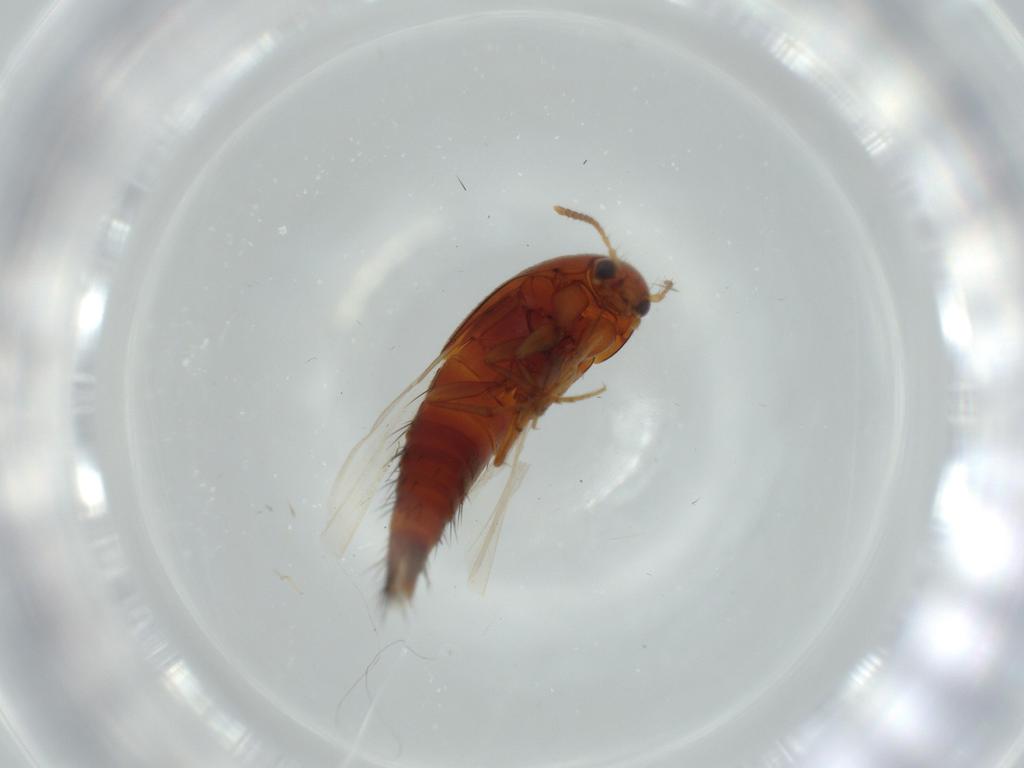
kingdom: Animalia
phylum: Arthropoda
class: Insecta
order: Coleoptera
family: Staphylinidae
